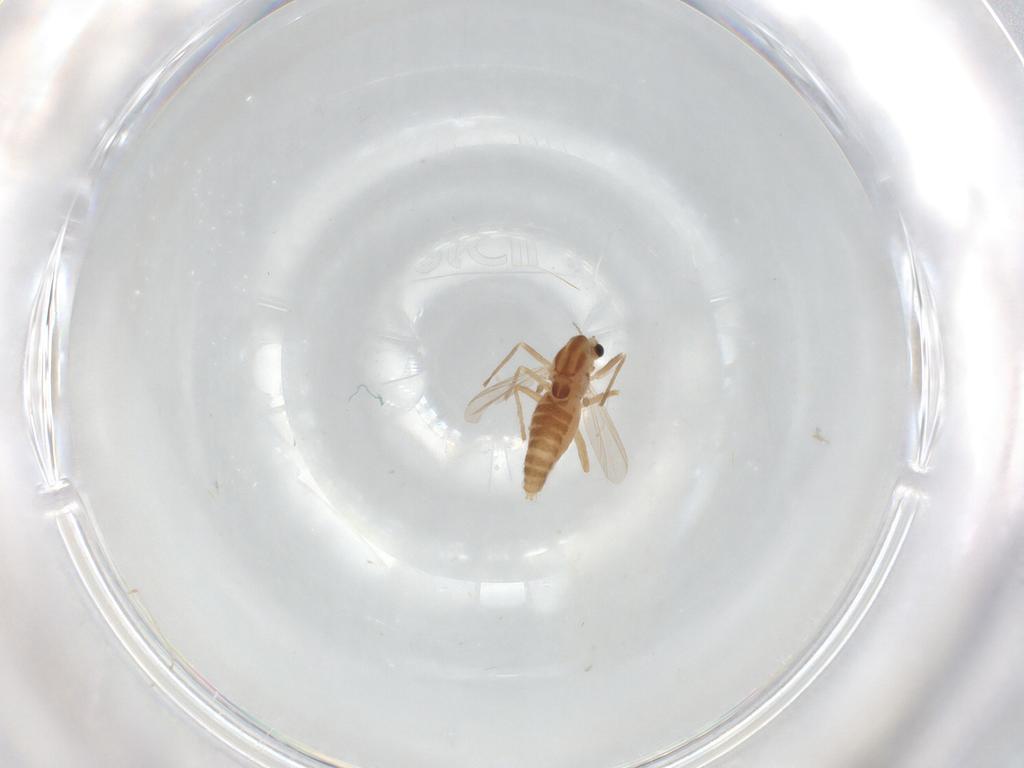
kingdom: Animalia
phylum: Arthropoda
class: Insecta
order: Diptera
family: Chironomidae
